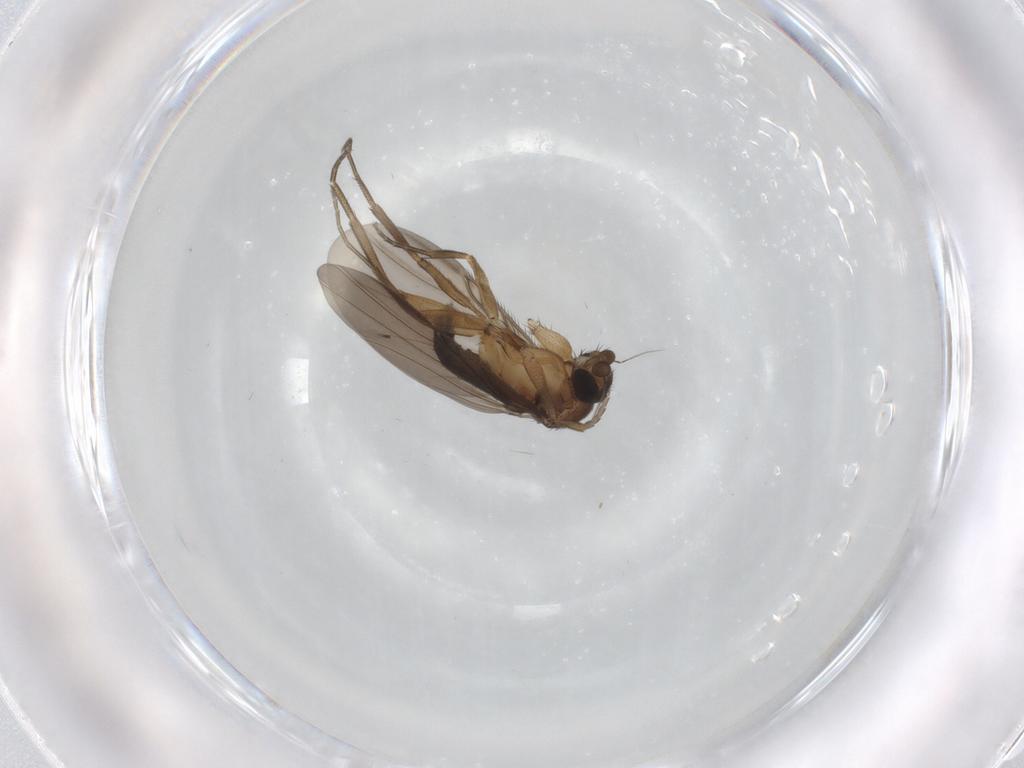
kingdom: Animalia
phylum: Arthropoda
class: Insecta
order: Diptera
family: Phoridae
